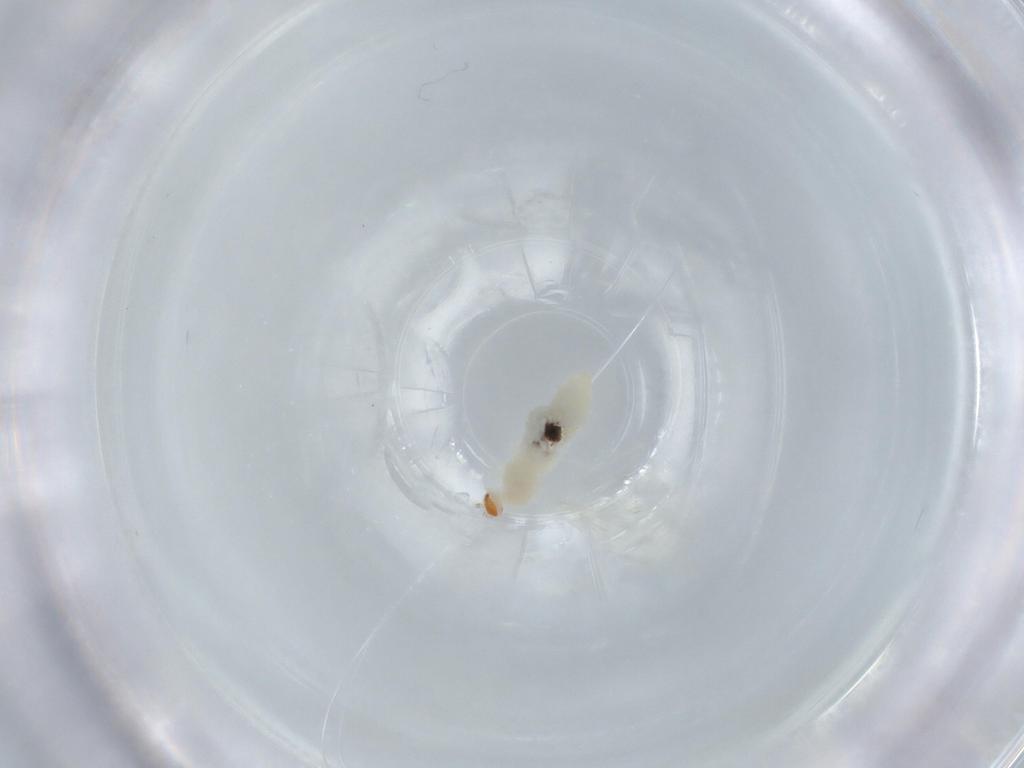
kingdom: Animalia
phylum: Arthropoda
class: Insecta
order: Diptera
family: Cecidomyiidae
